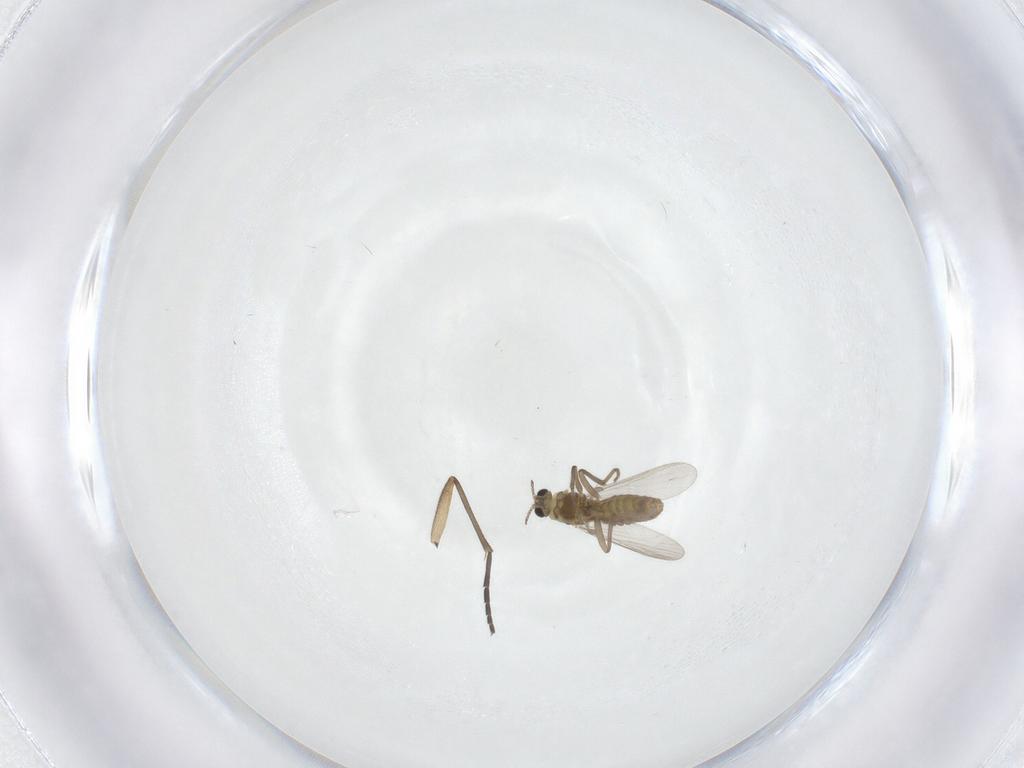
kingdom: Animalia
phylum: Arthropoda
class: Insecta
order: Diptera
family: Chironomidae
